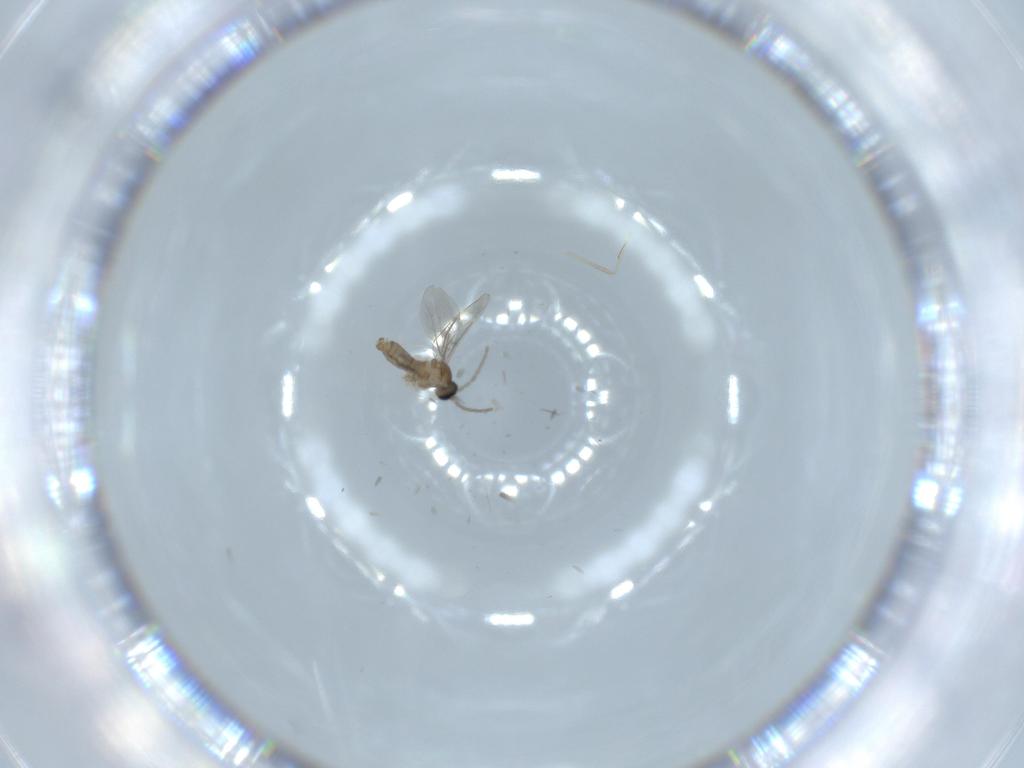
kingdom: Animalia
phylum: Arthropoda
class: Insecta
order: Diptera
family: Cecidomyiidae
